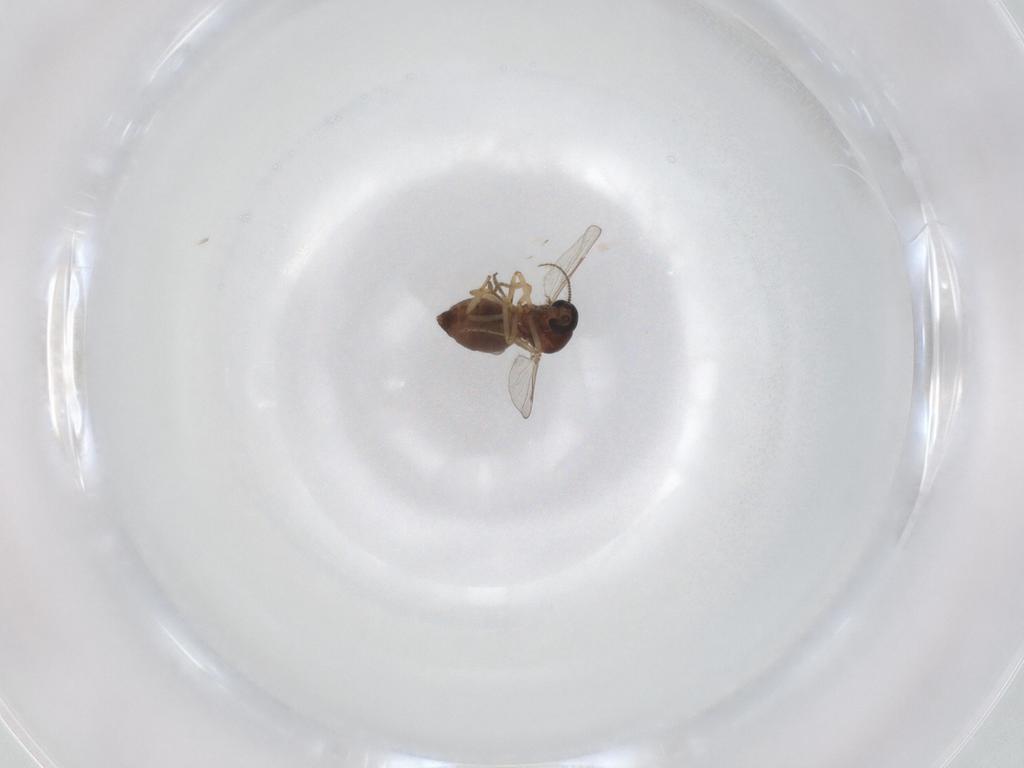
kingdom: Animalia
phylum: Arthropoda
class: Insecta
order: Diptera
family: Ceratopogonidae
